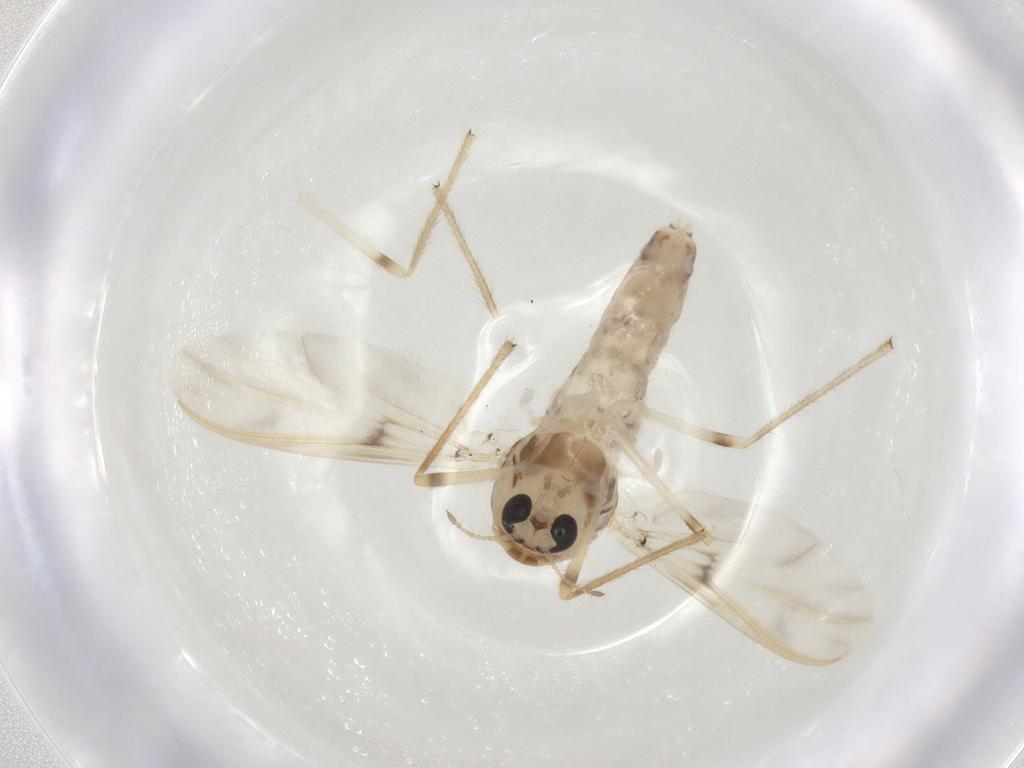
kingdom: Animalia
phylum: Arthropoda
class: Insecta
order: Diptera
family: Chironomidae
